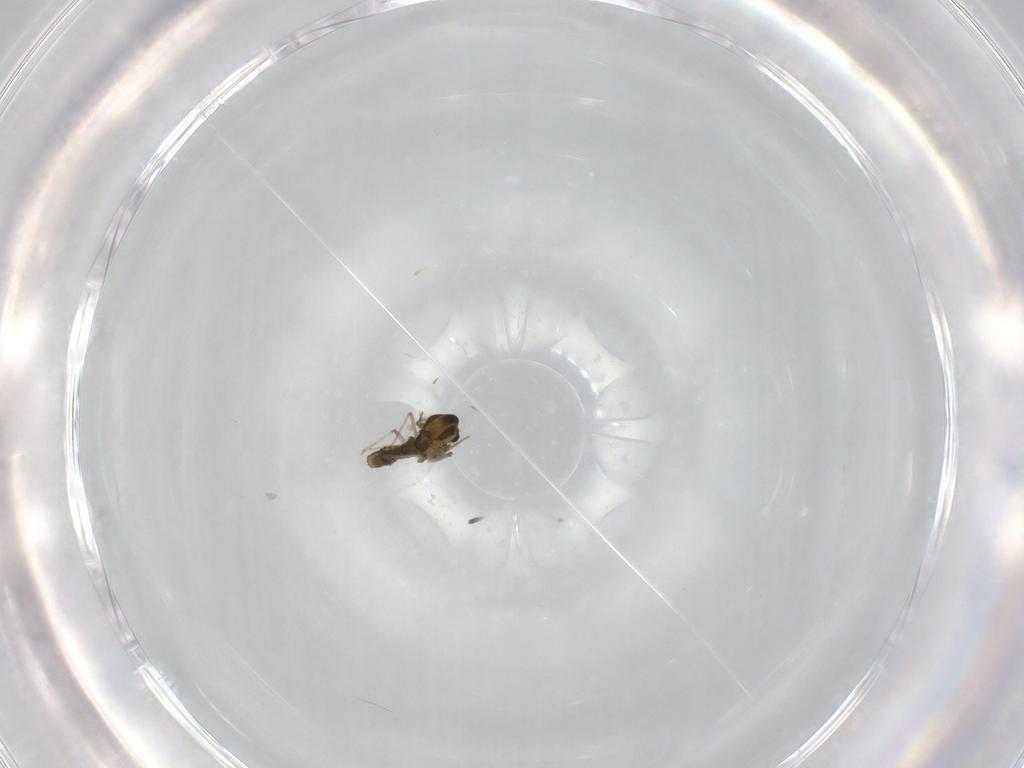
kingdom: Animalia
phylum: Arthropoda
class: Insecta
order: Diptera
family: Chironomidae
